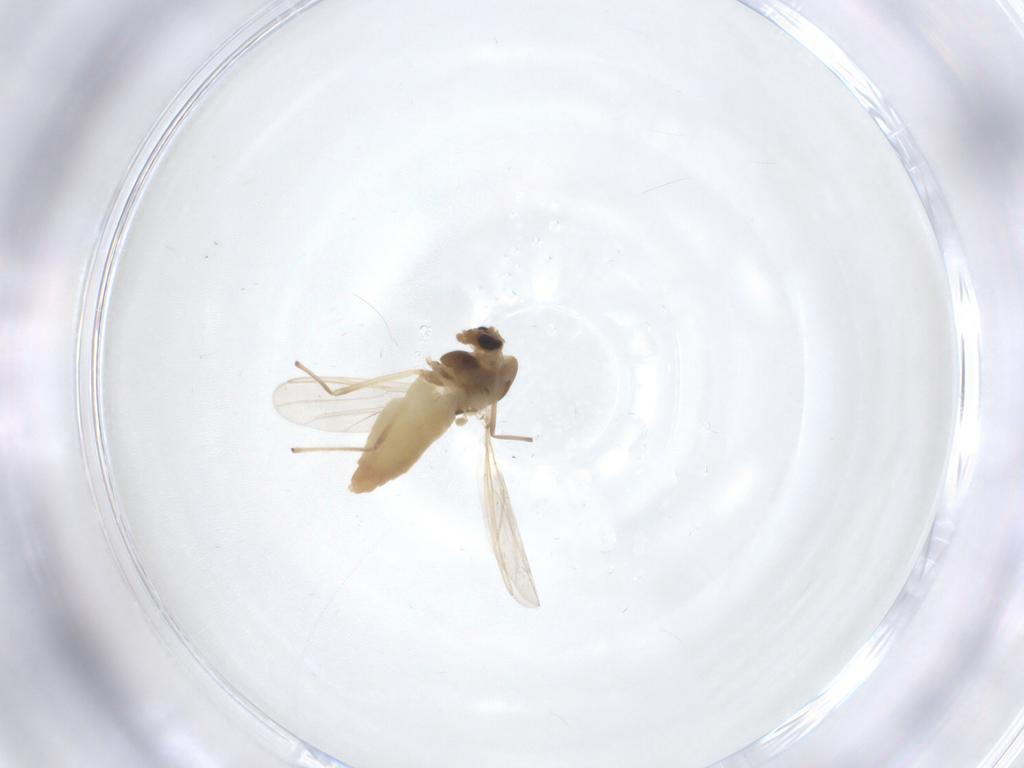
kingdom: Animalia
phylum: Arthropoda
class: Insecta
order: Diptera
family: Chironomidae
